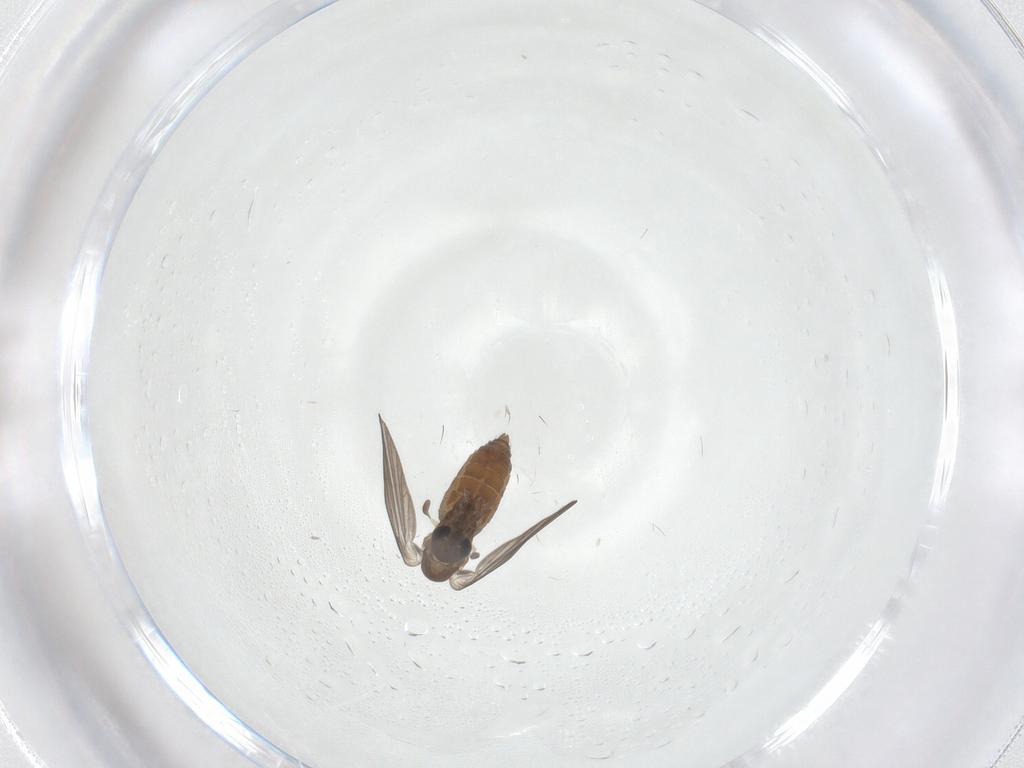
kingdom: Animalia
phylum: Arthropoda
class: Insecta
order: Diptera
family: Psychodidae
